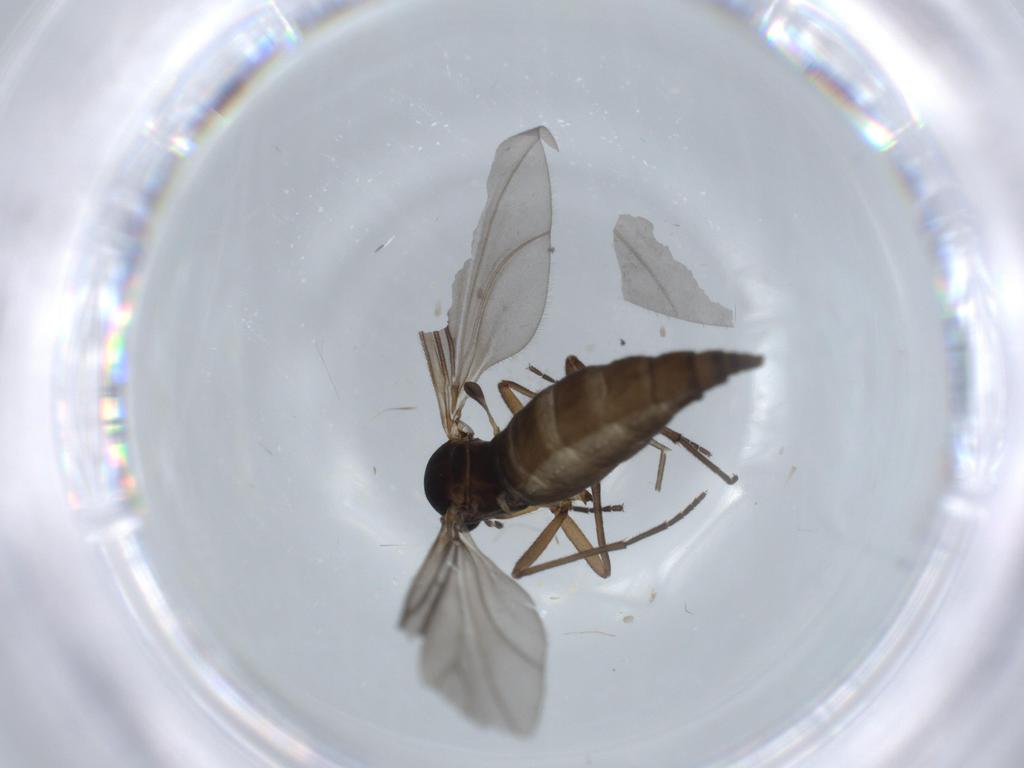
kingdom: Animalia
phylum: Arthropoda
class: Insecta
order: Diptera
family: Sciaridae
